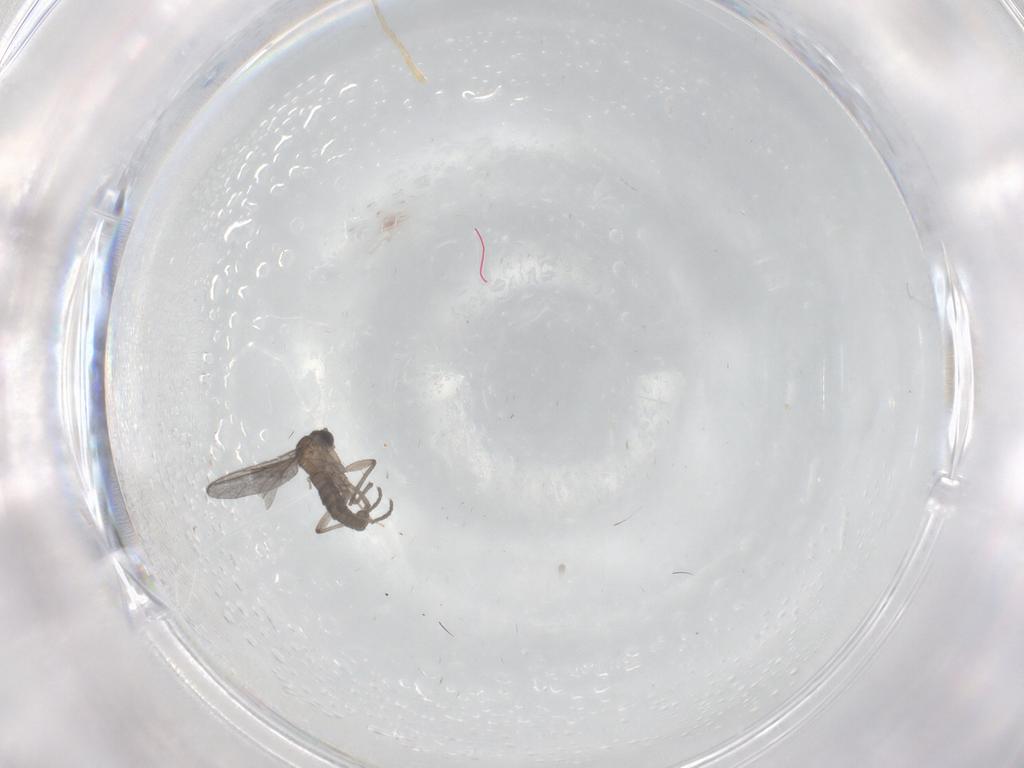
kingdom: Animalia
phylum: Arthropoda
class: Insecta
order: Diptera
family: Sciaridae
